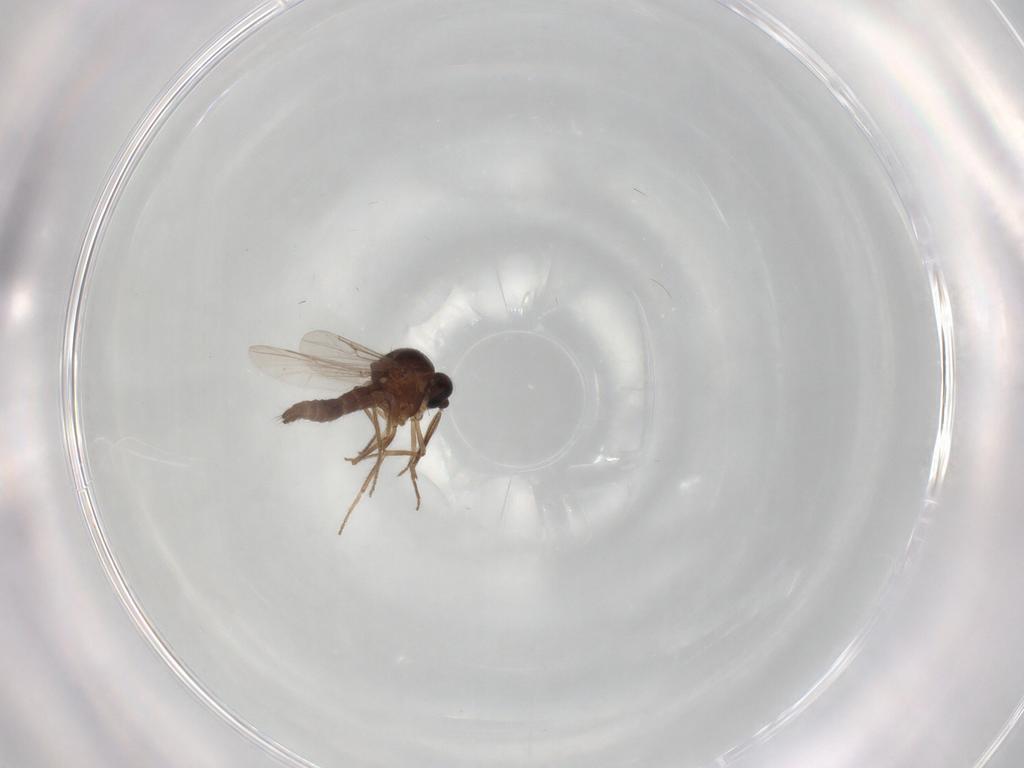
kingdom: Animalia
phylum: Arthropoda
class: Insecta
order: Diptera
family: Ceratopogonidae
